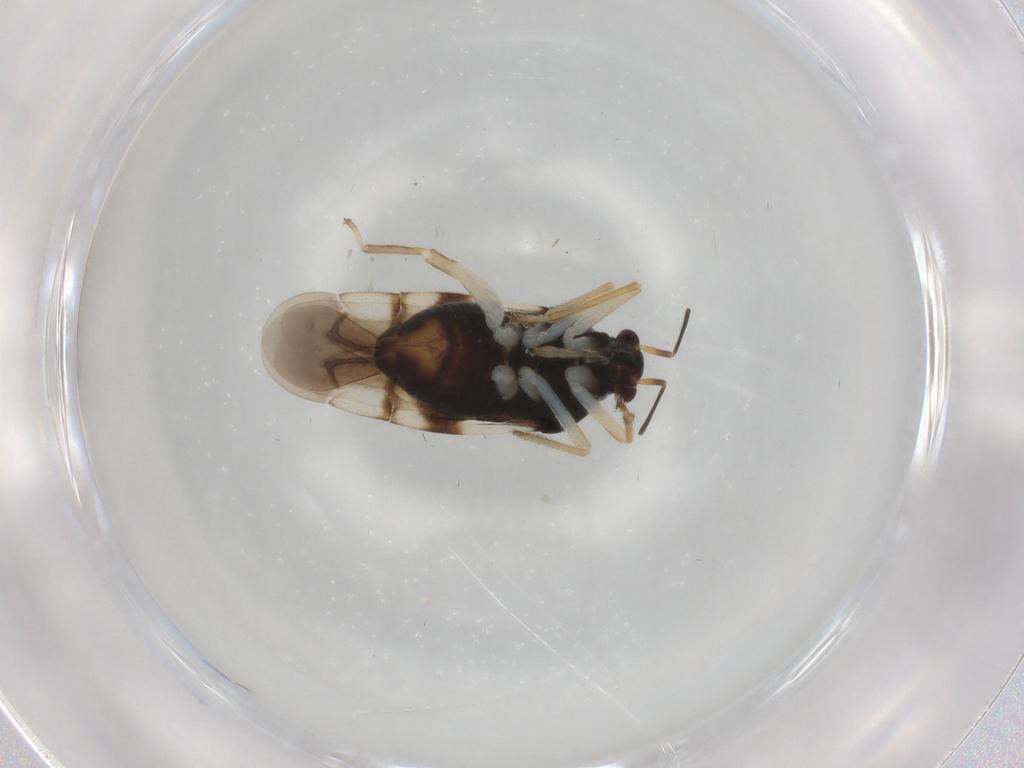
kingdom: Animalia
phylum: Arthropoda
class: Insecta
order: Hemiptera
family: Miridae
